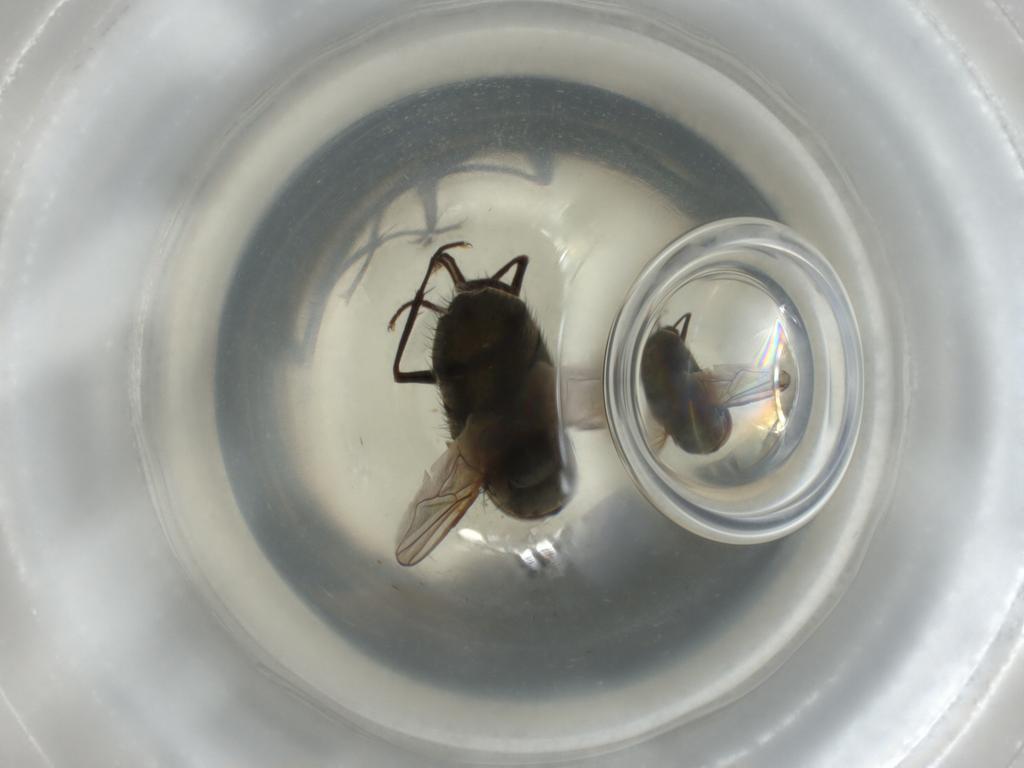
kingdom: Animalia
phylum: Arthropoda
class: Insecta
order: Diptera
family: Muscidae
